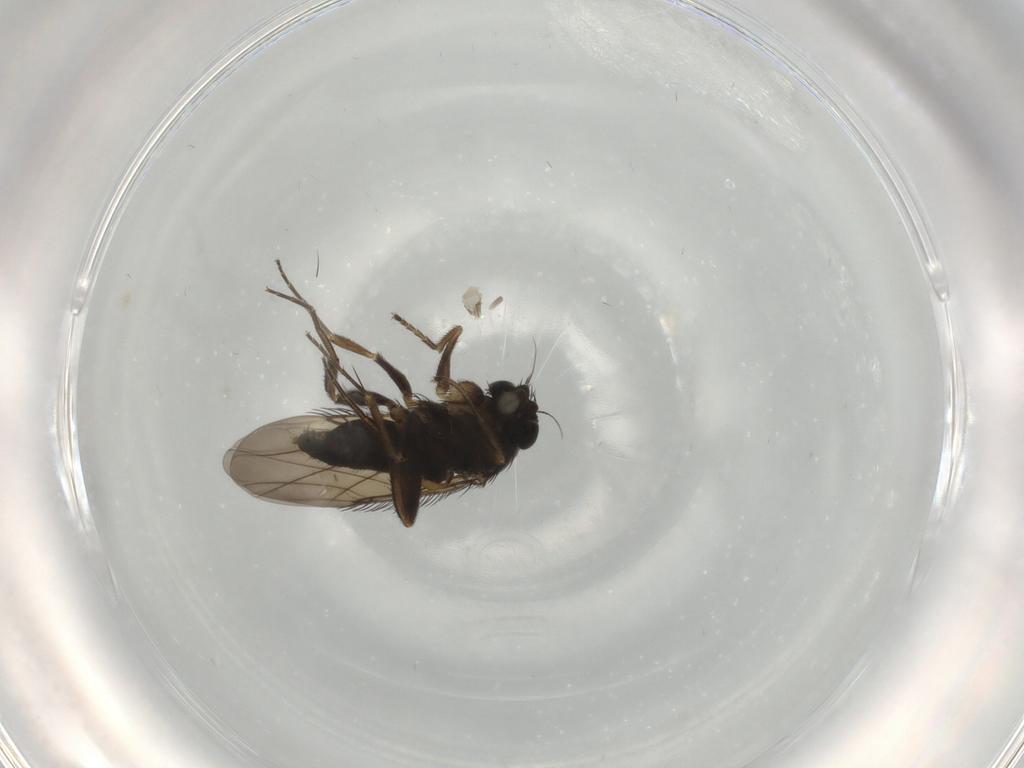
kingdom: Animalia
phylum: Arthropoda
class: Insecta
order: Diptera
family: Phoridae
